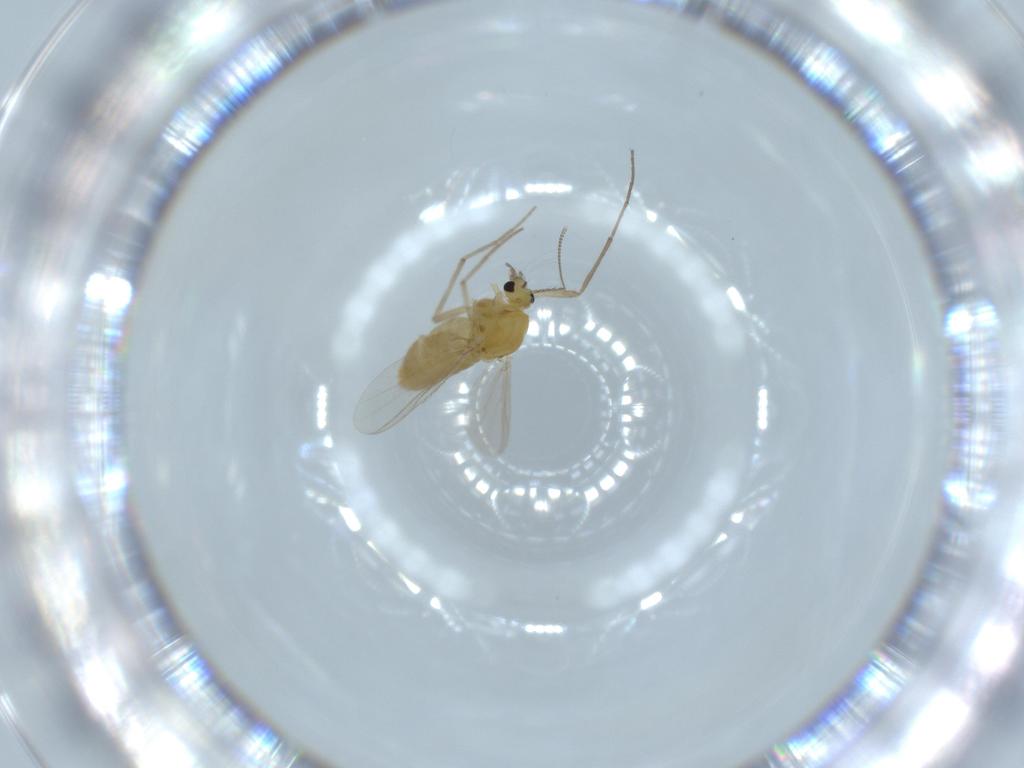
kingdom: Animalia
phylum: Arthropoda
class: Insecta
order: Diptera
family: Chironomidae
